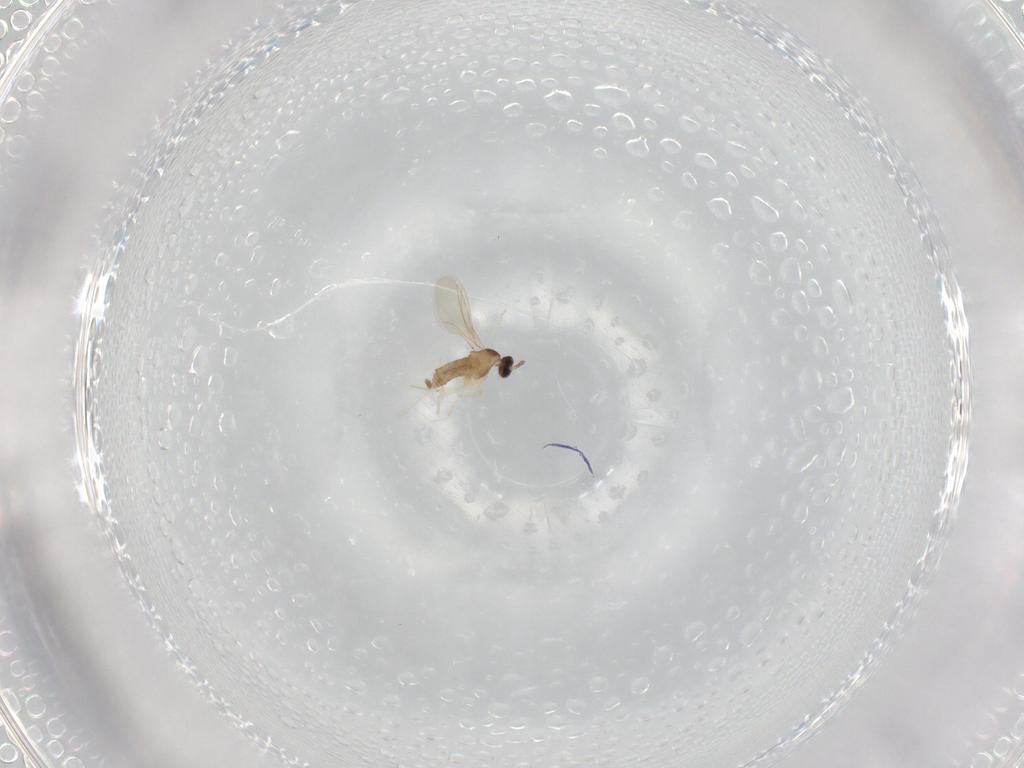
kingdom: Animalia
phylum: Arthropoda
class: Insecta
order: Diptera
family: Cecidomyiidae
